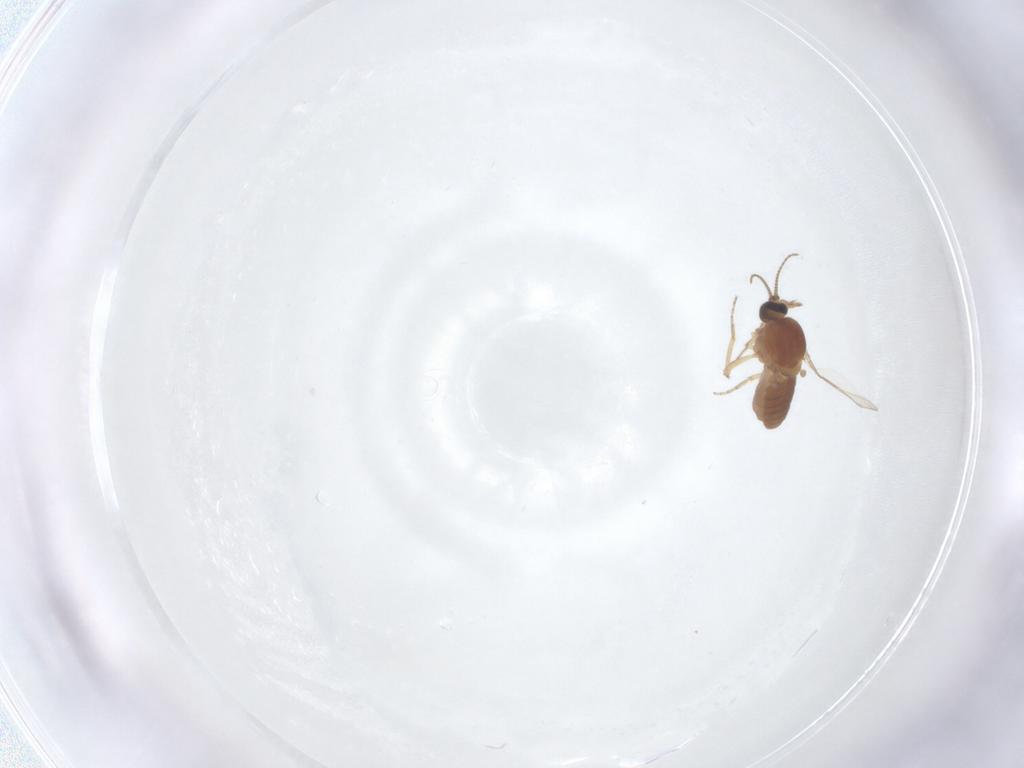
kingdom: Animalia
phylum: Arthropoda
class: Insecta
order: Diptera
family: Ceratopogonidae
